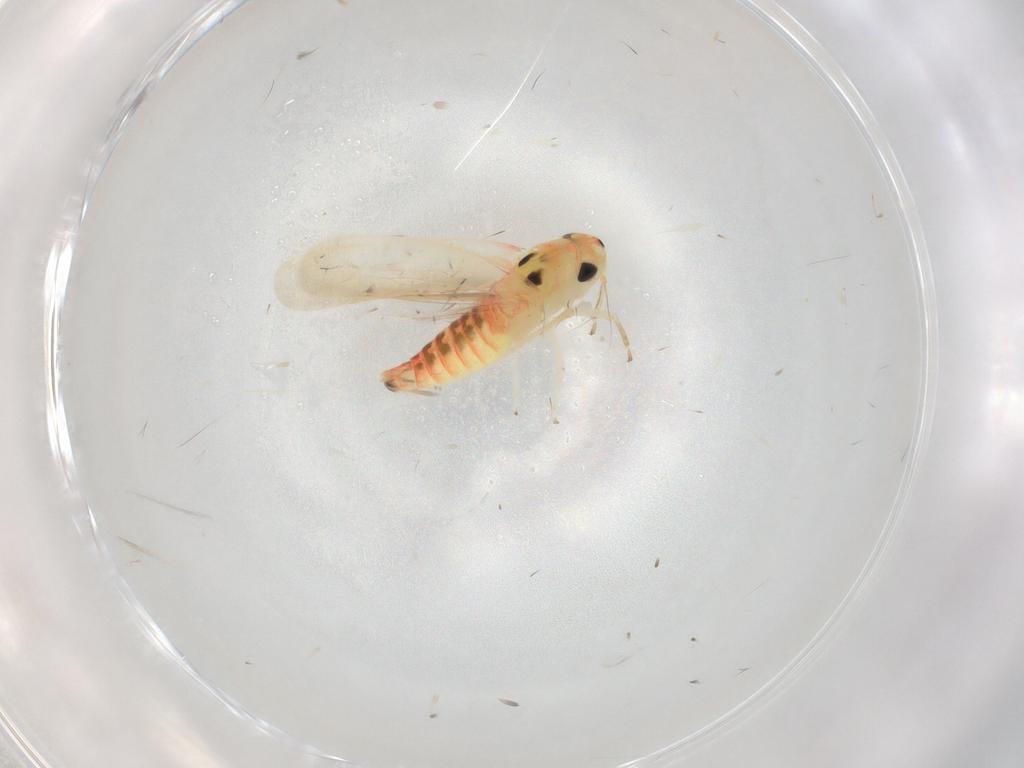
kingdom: Animalia
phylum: Arthropoda
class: Insecta
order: Hemiptera
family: Cicadellidae
